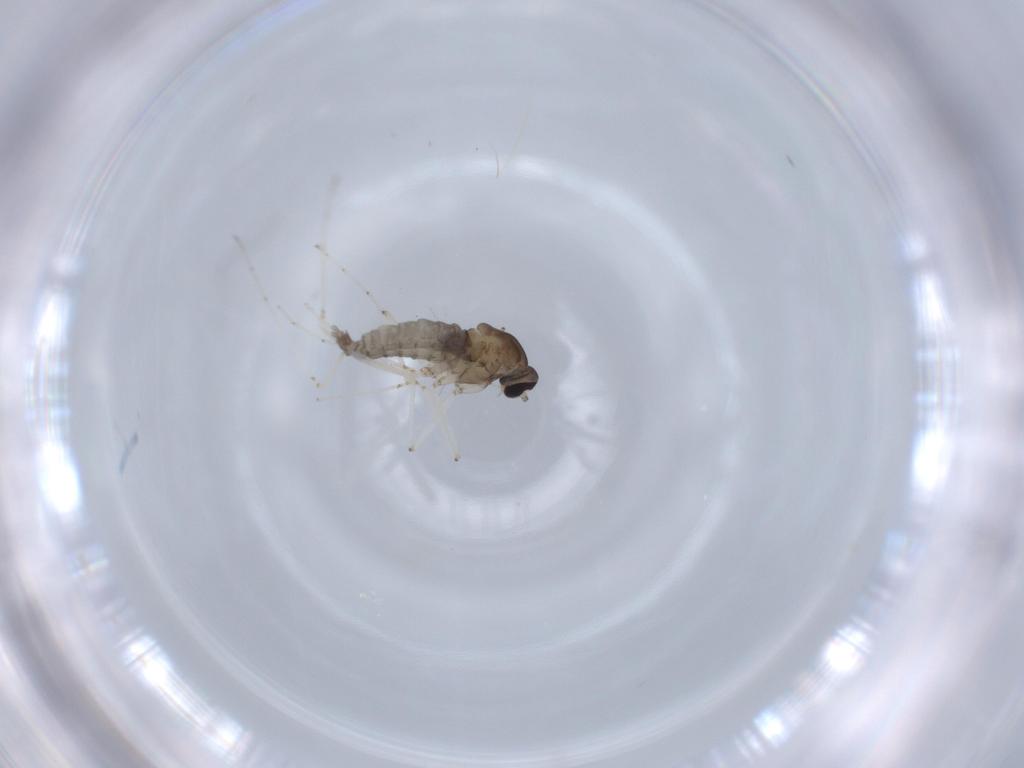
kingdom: Animalia
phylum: Arthropoda
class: Insecta
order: Diptera
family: Cecidomyiidae
